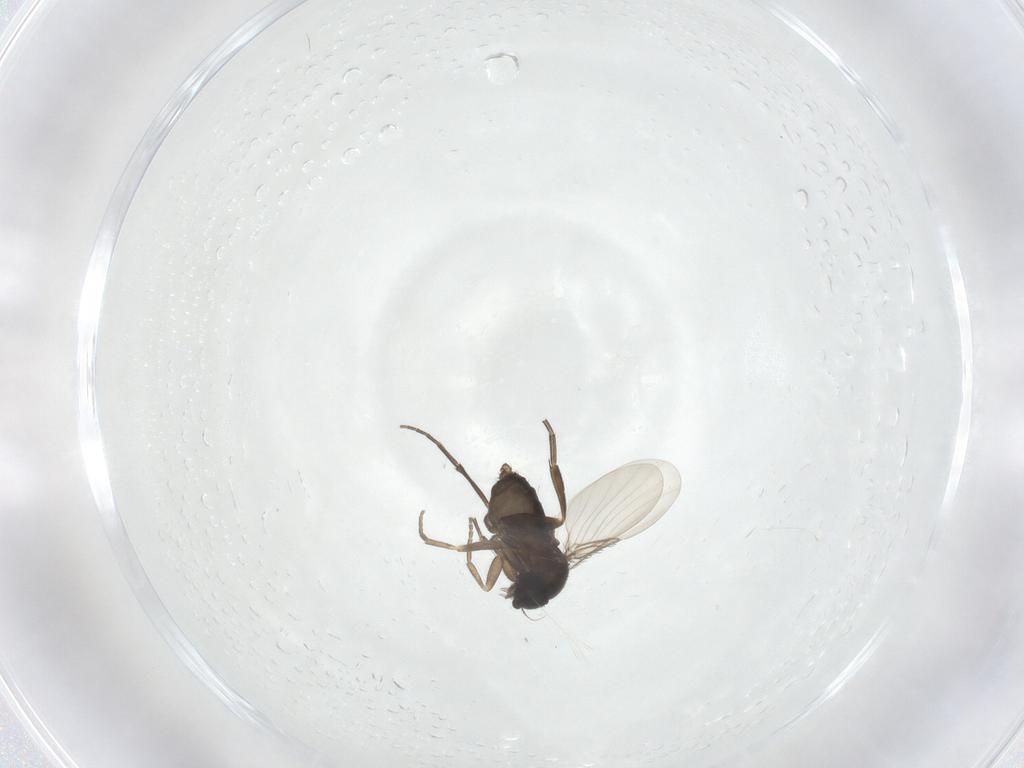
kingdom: Animalia
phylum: Arthropoda
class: Insecta
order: Diptera
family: Phoridae
